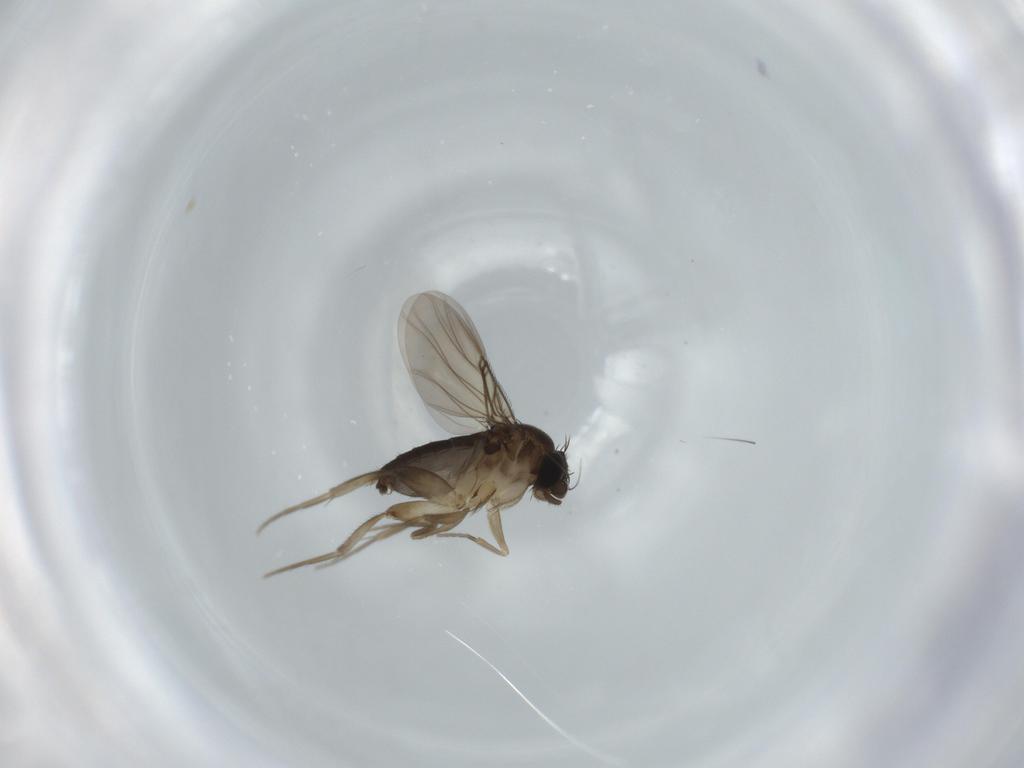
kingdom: Animalia
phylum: Arthropoda
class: Insecta
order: Diptera
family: Phoridae
